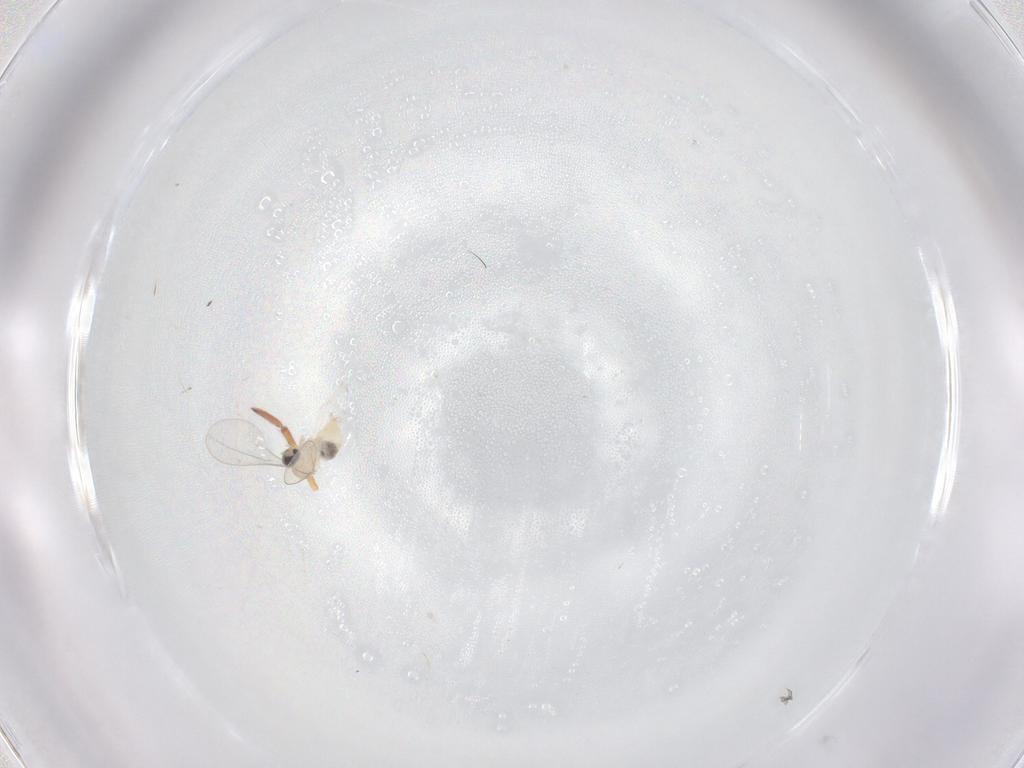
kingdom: Animalia
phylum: Arthropoda
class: Insecta
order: Diptera
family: Cecidomyiidae
